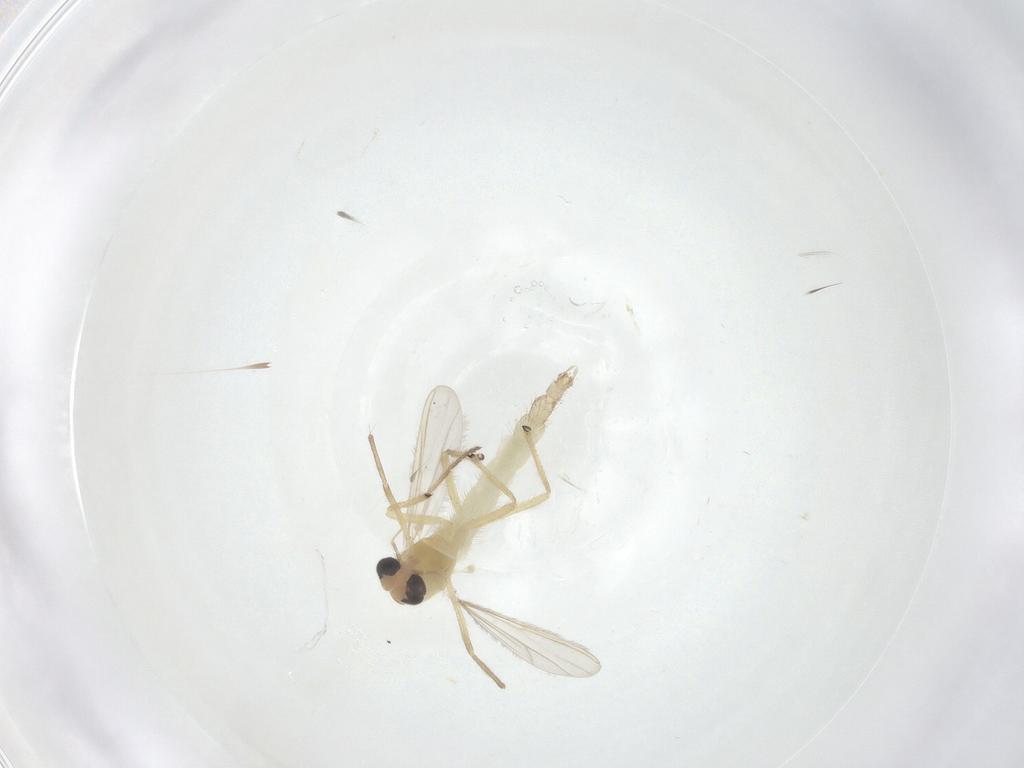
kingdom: Animalia
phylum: Arthropoda
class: Insecta
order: Diptera
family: Chironomidae
